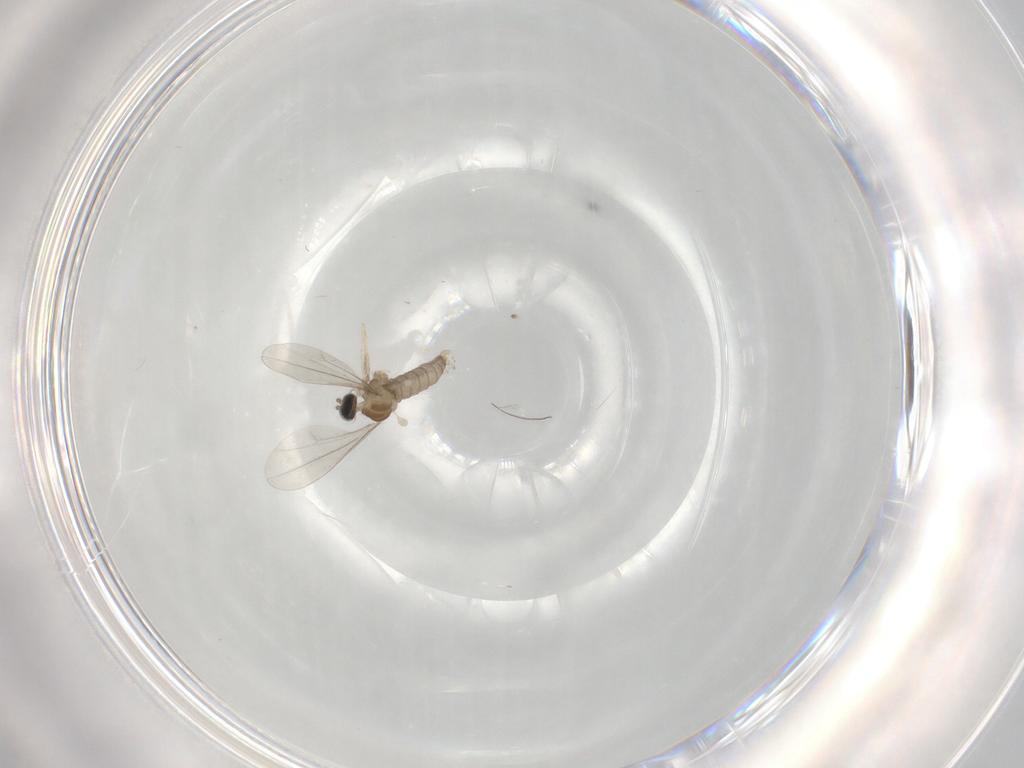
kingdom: Animalia
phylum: Arthropoda
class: Insecta
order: Diptera
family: Cecidomyiidae
